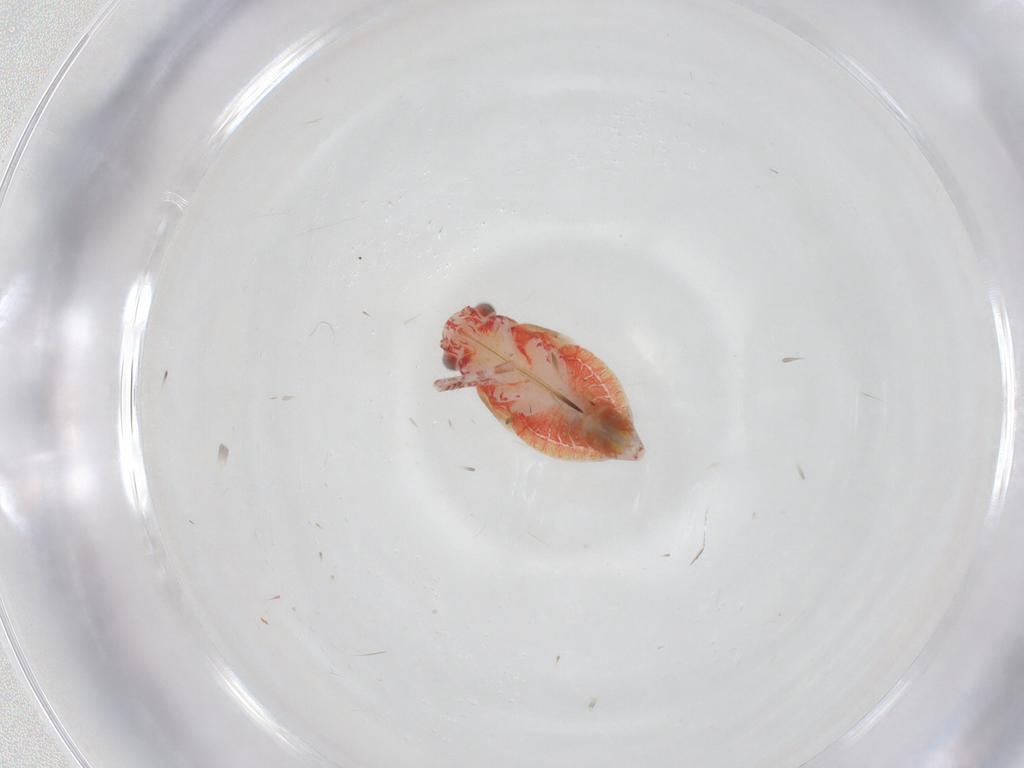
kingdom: Animalia
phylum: Arthropoda
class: Insecta
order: Hemiptera
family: Miridae
